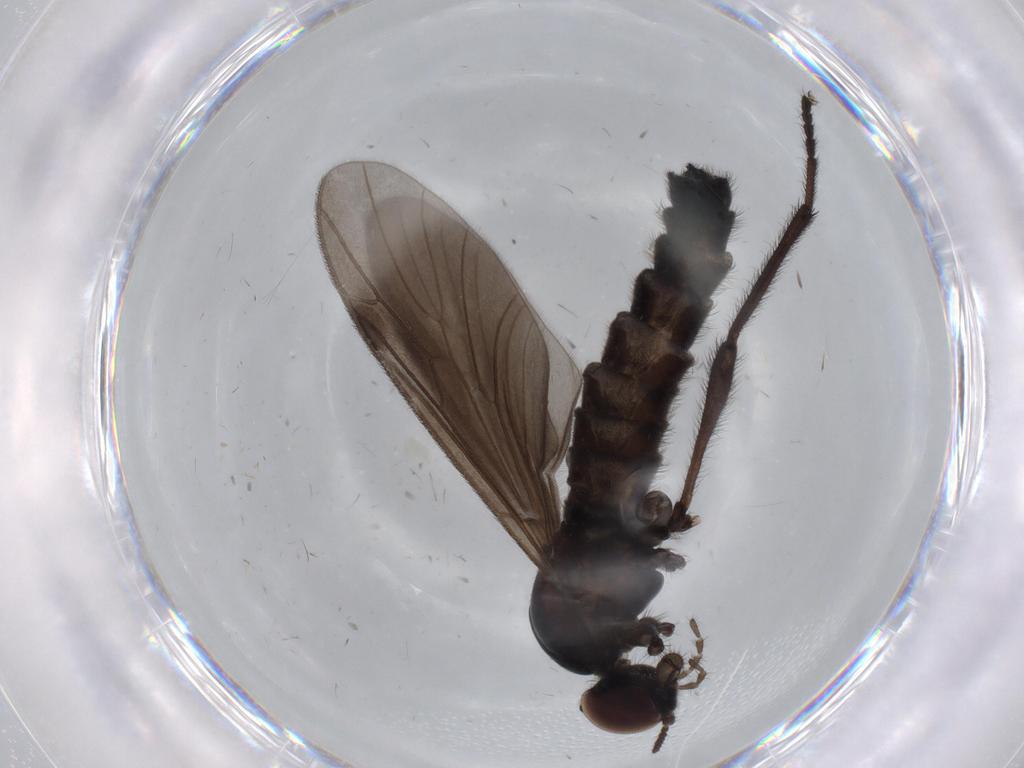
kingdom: Animalia
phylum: Arthropoda
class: Insecta
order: Diptera
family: Bibionidae
